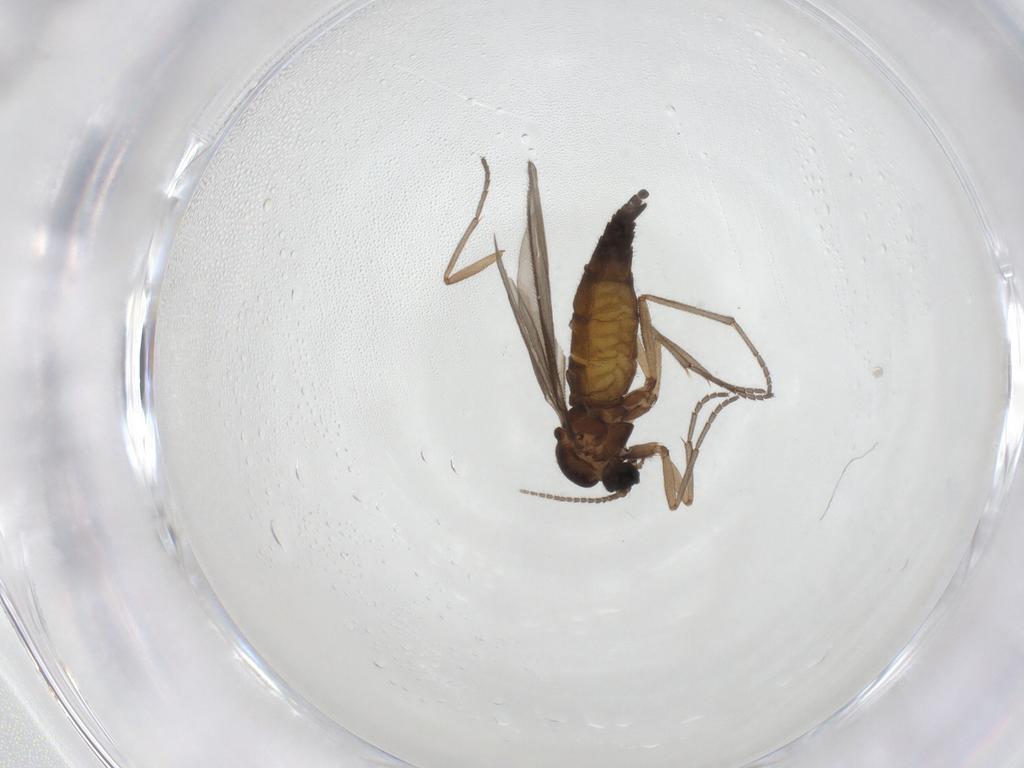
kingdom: Animalia
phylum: Arthropoda
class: Insecta
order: Diptera
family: Sciaridae
